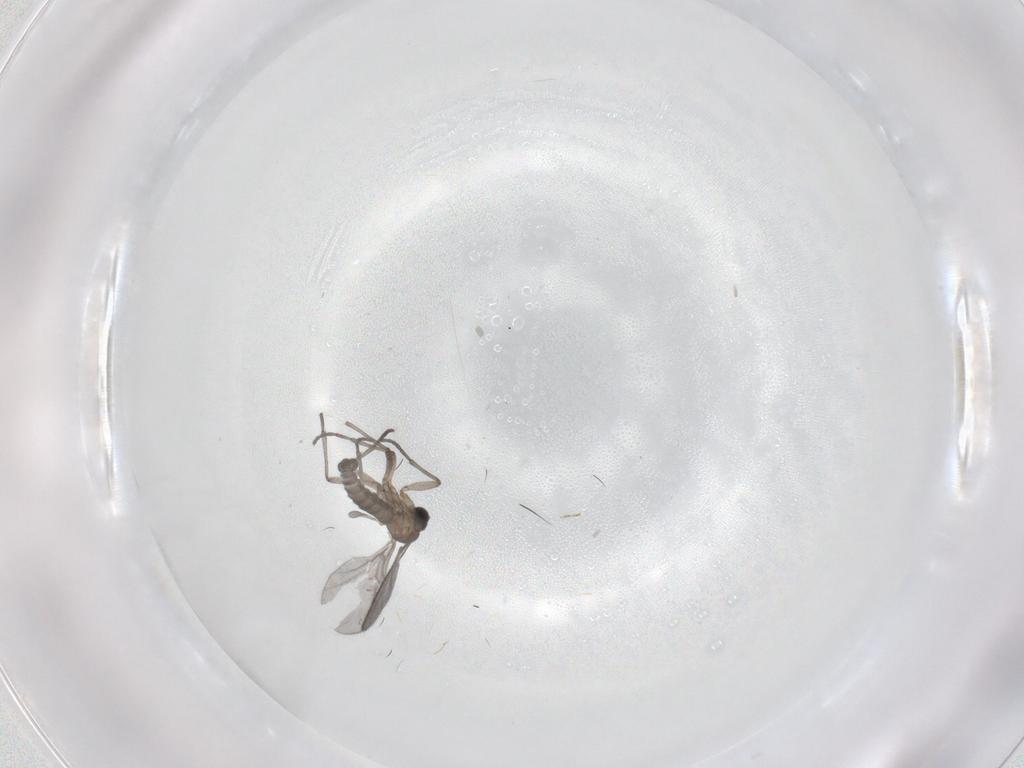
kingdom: Animalia
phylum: Arthropoda
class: Insecta
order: Diptera
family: Sciaridae
